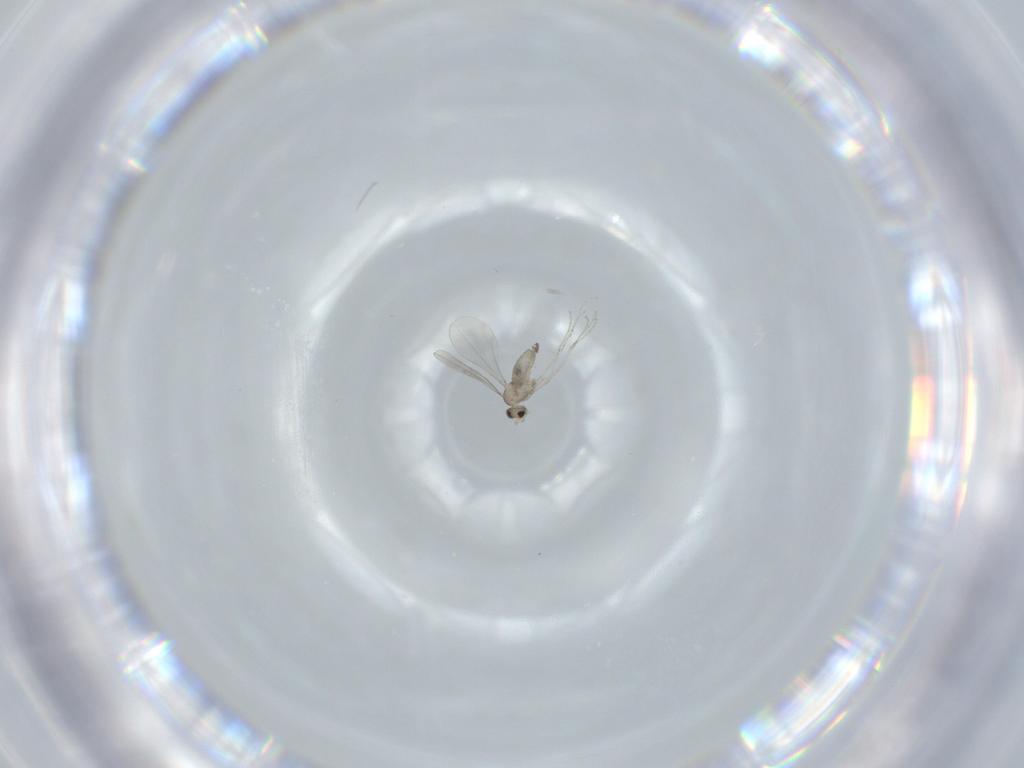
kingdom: Animalia
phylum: Arthropoda
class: Insecta
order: Diptera
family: Cecidomyiidae
